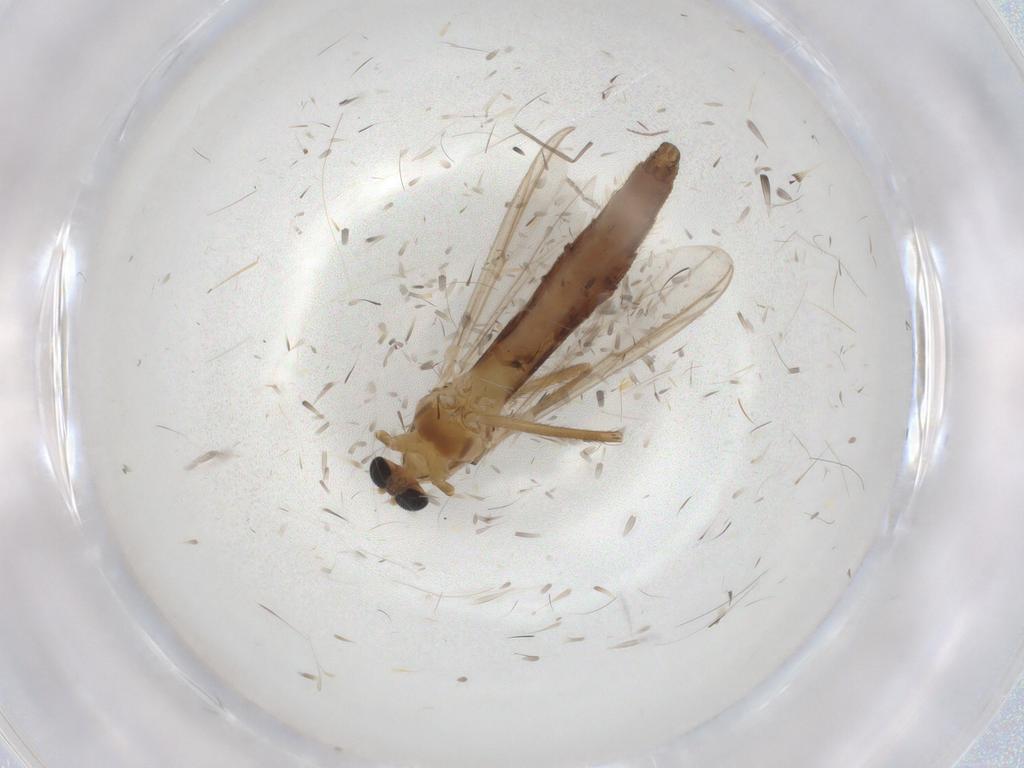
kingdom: Animalia
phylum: Arthropoda
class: Insecta
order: Diptera
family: Chironomidae
